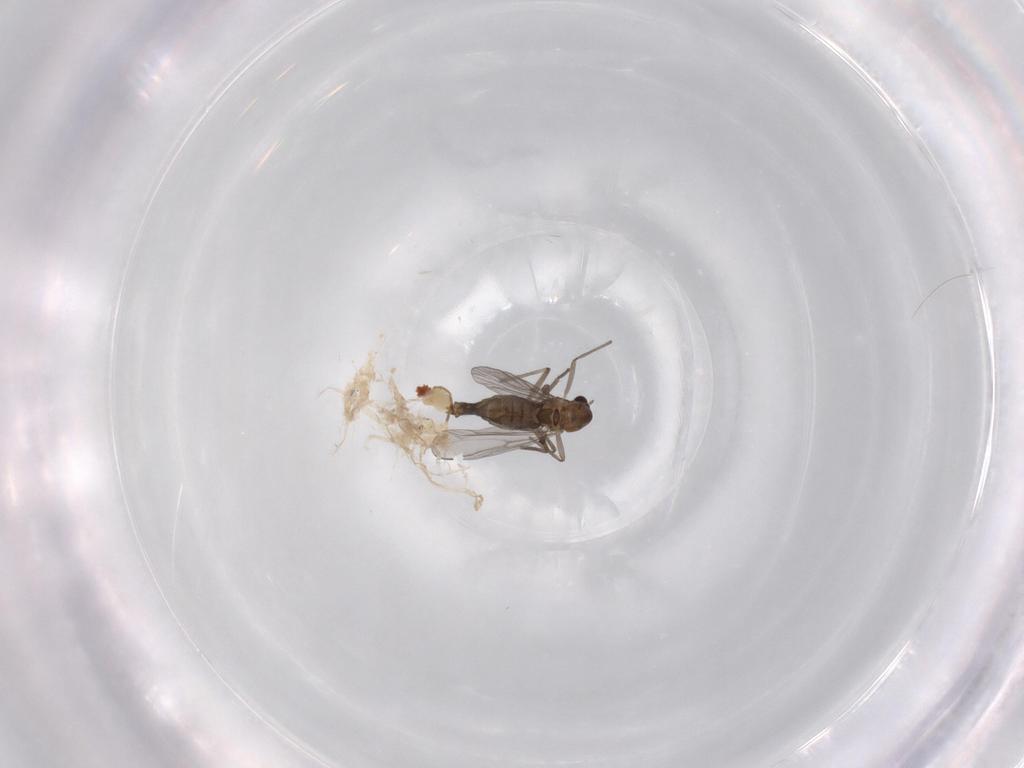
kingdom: Animalia
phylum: Arthropoda
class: Insecta
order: Diptera
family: Chironomidae
